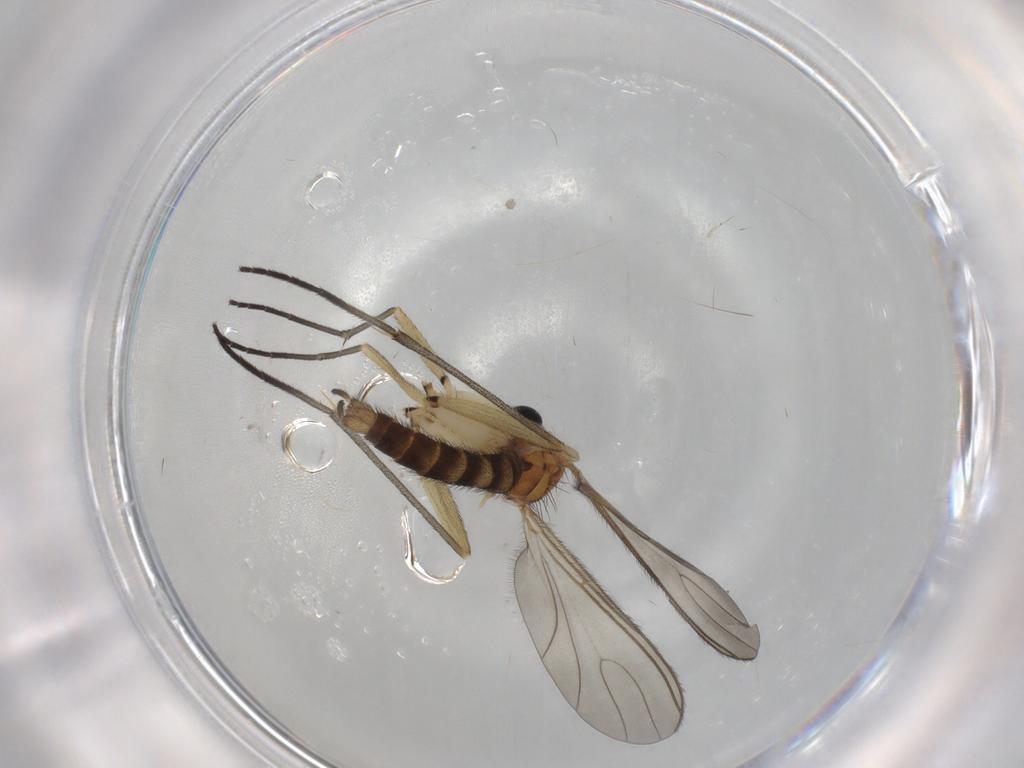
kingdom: Animalia
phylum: Arthropoda
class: Insecta
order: Diptera
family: Sciaridae
